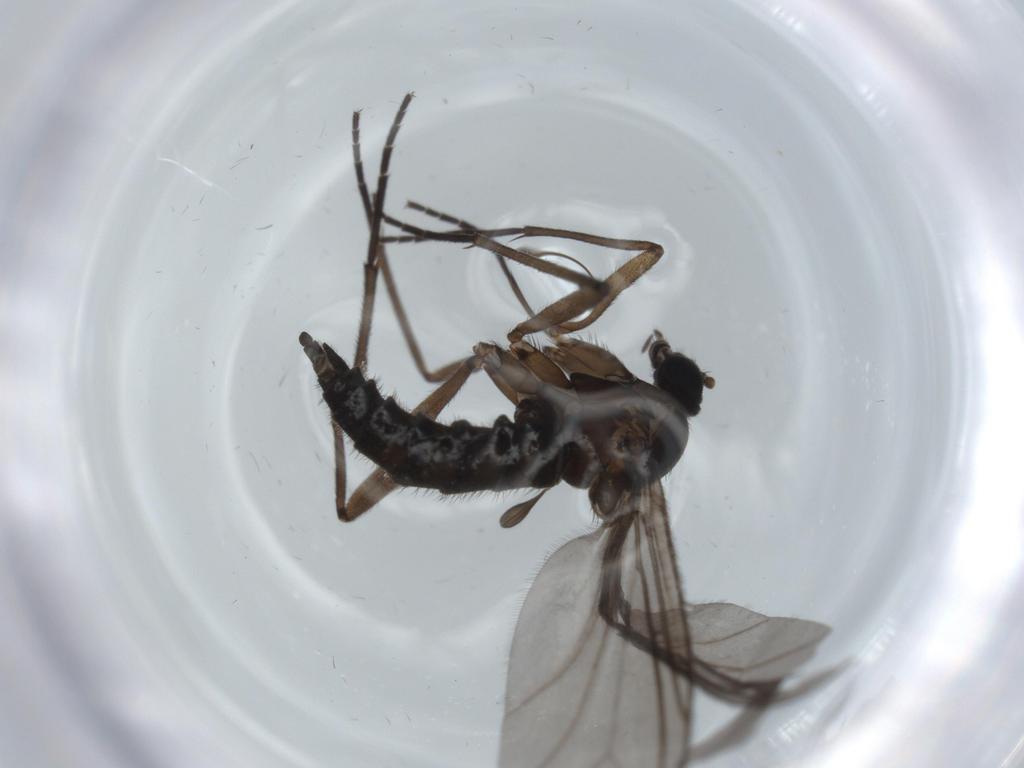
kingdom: Animalia
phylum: Arthropoda
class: Insecta
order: Diptera
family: Sciaridae
